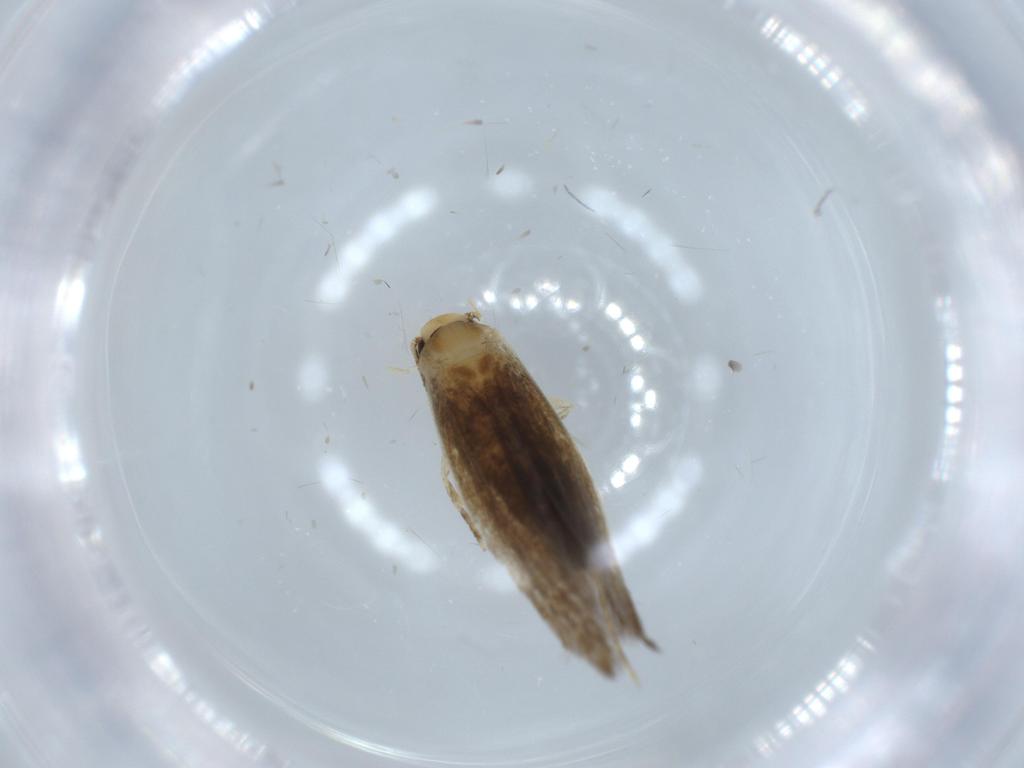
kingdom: Animalia
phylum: Arthropoda
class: Insecta
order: Lepidoptera
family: Tineidae
